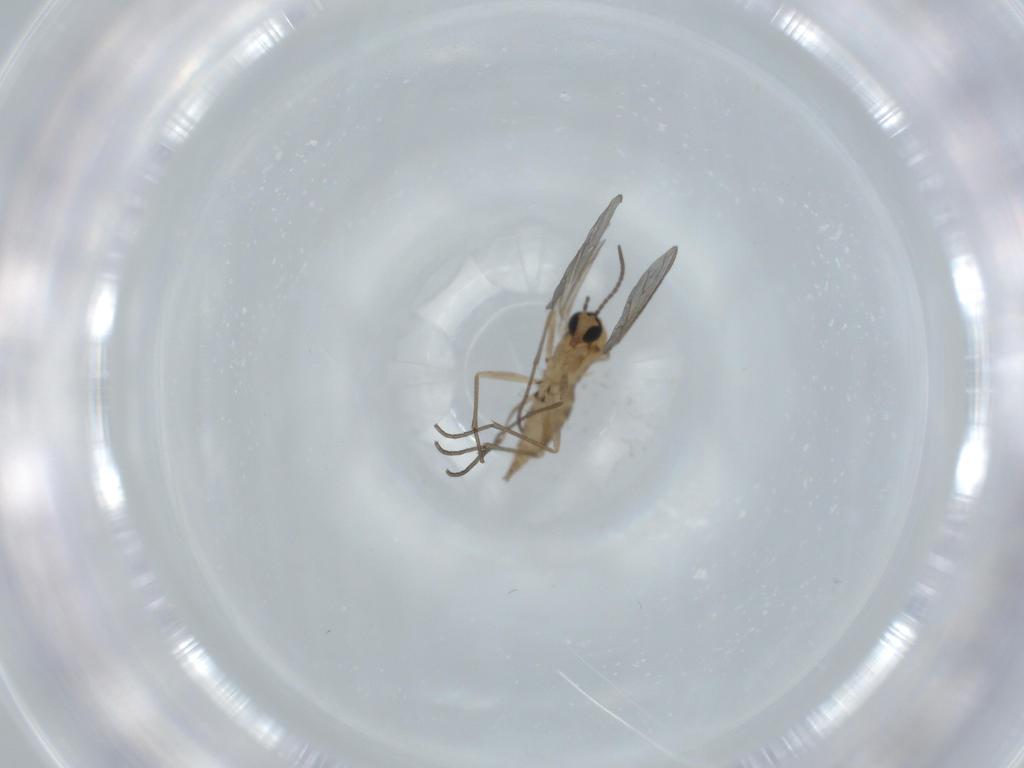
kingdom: Animalia
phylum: Arthropoda
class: Insecta
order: Diptera
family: Sciaridae
